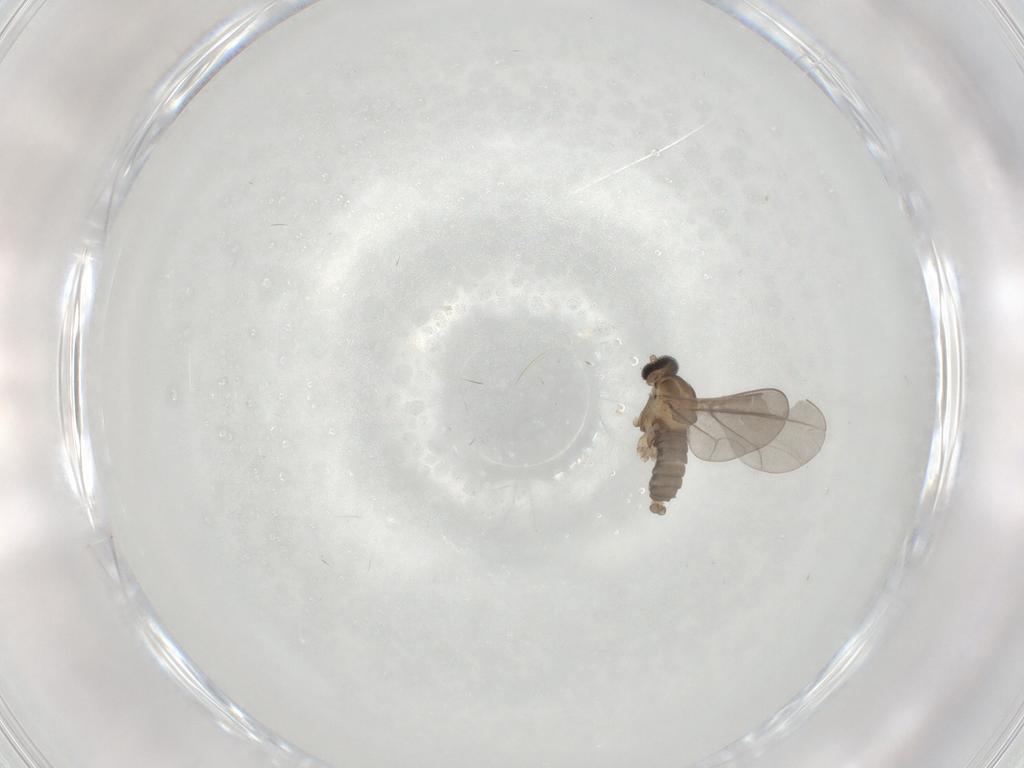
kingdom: Animalia
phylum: Arthropoda
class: Insecta
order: Diptera
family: Cecidomyiidae
